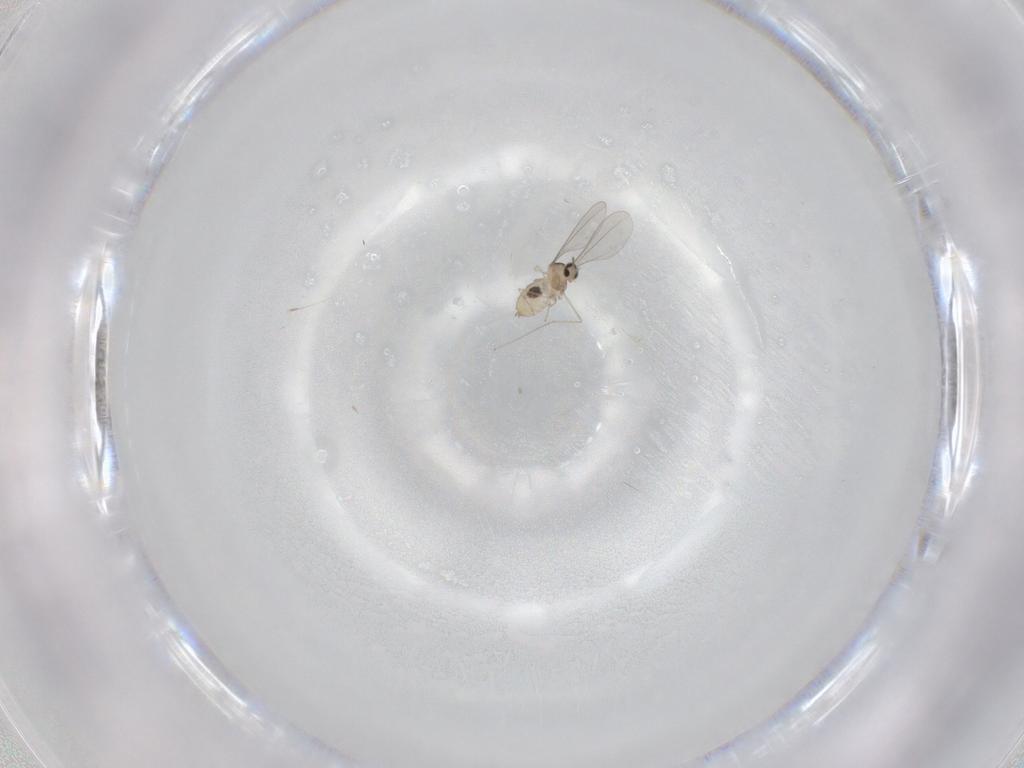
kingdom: Animalia
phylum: Arthropoda
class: Insecta
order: Diptera
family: Cecidomyiidae
